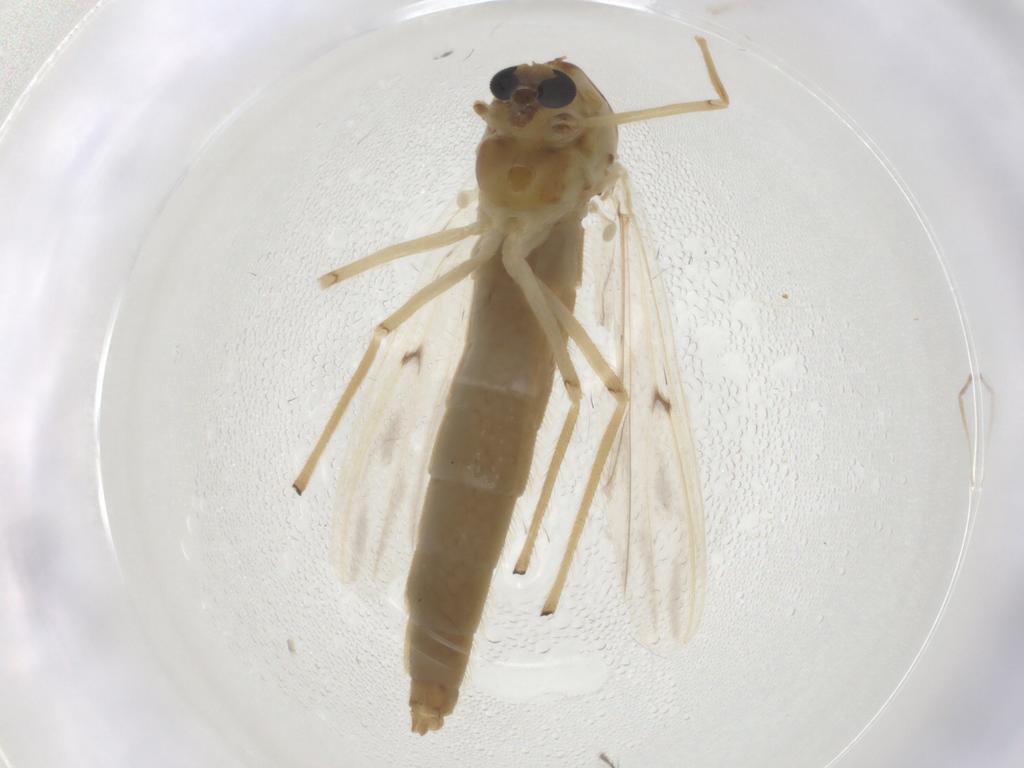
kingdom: Animalia
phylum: Arthropoda
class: Insecta
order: Diptera
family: Chironomidae
